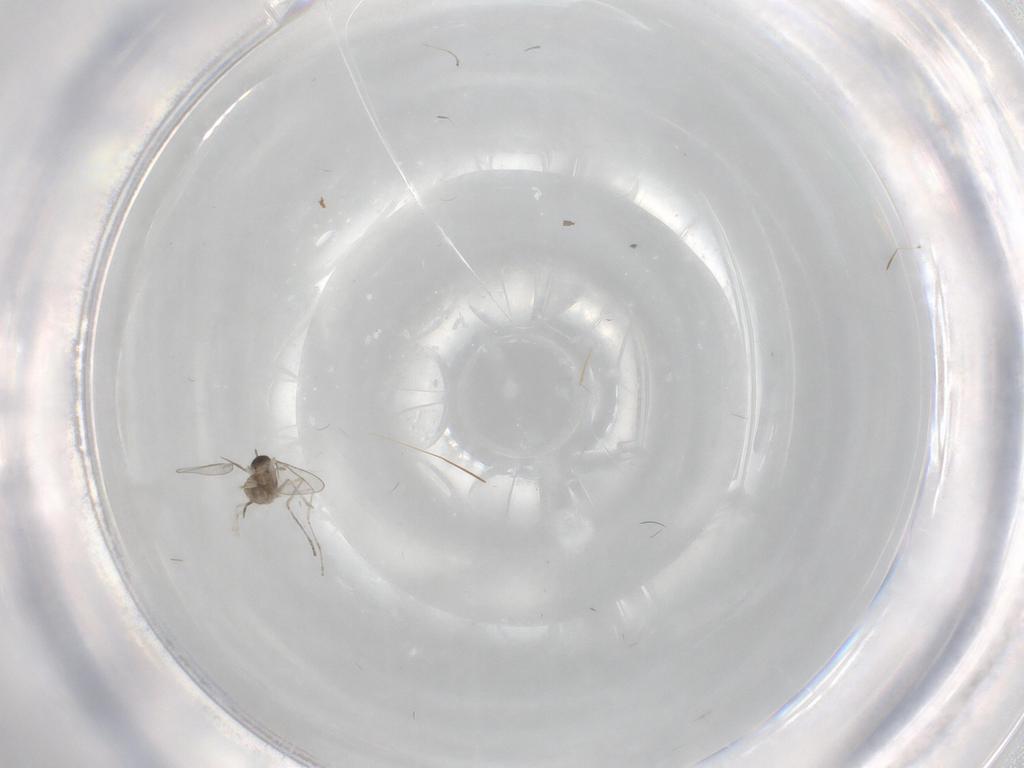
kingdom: Animalia
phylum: Arthropoda
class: Insecta
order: Diptera
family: Cecidomyiidae
